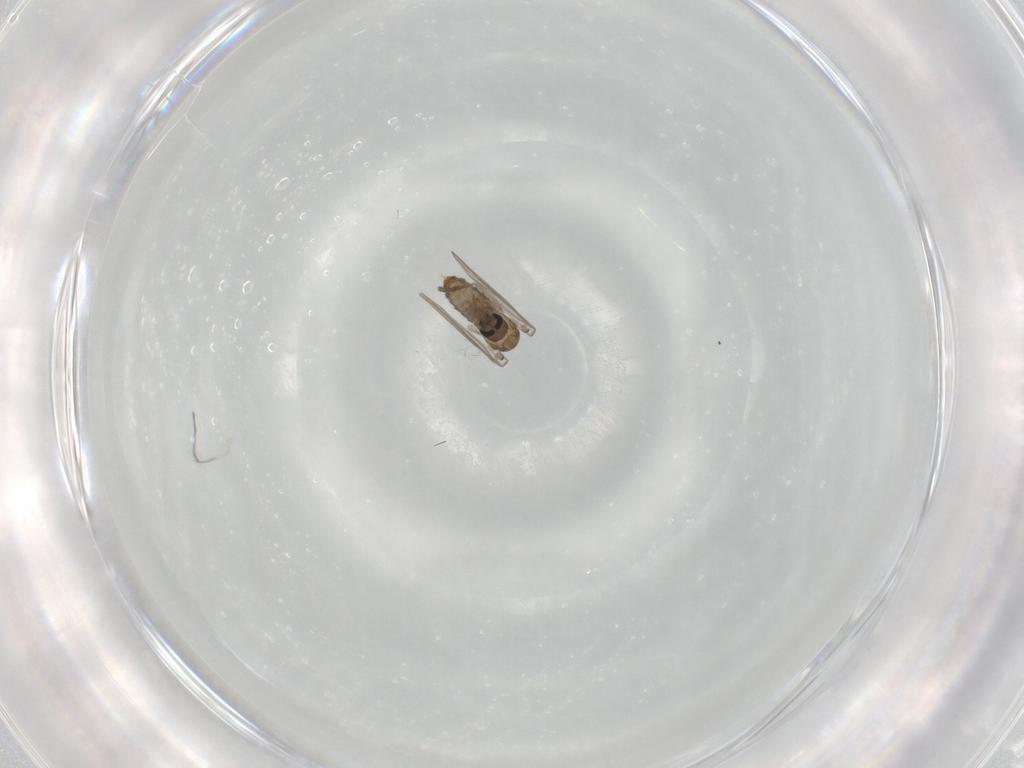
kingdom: Animalia
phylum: Arthropoda
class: Insecta
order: Diptera
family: Psychodidae
